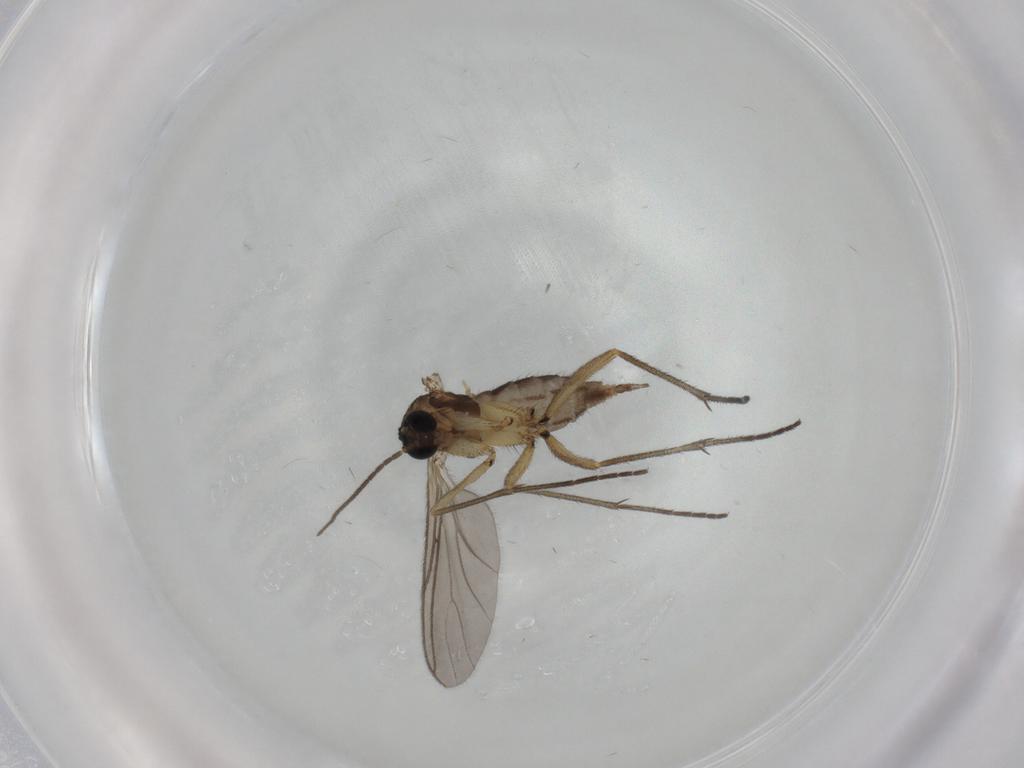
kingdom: Animalia
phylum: Arthropoda
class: Insecta
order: Diptera
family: Sciaridae
